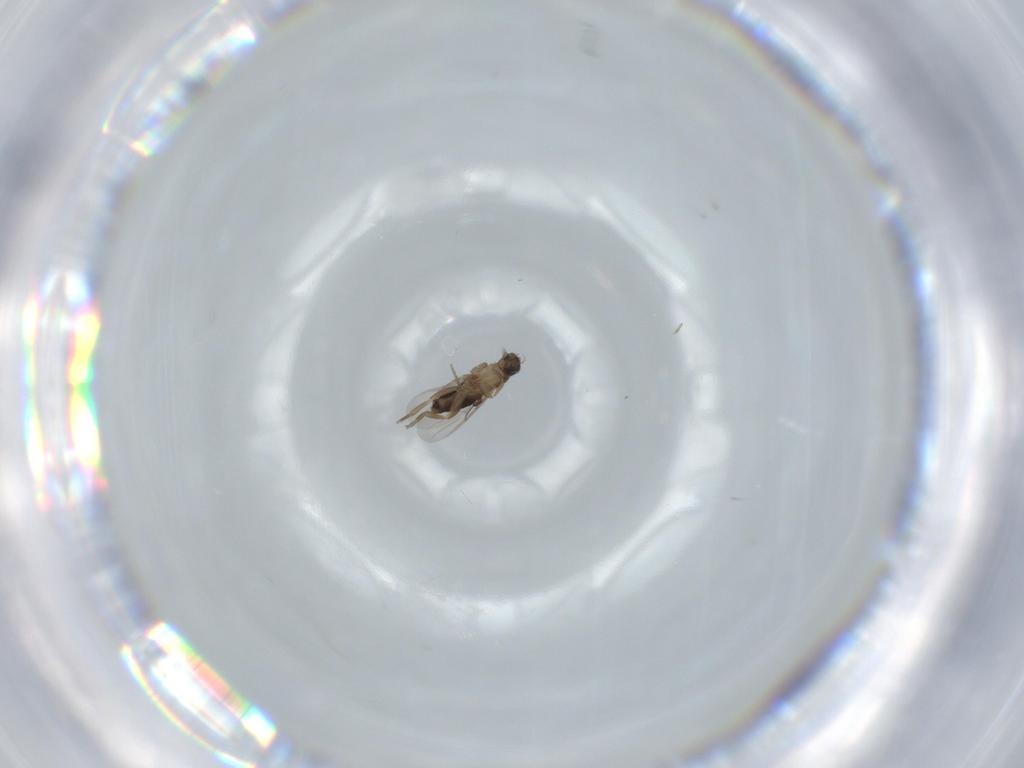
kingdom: Animalia
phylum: Arthropoda
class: Insecta
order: Diptera
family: Phoridae
